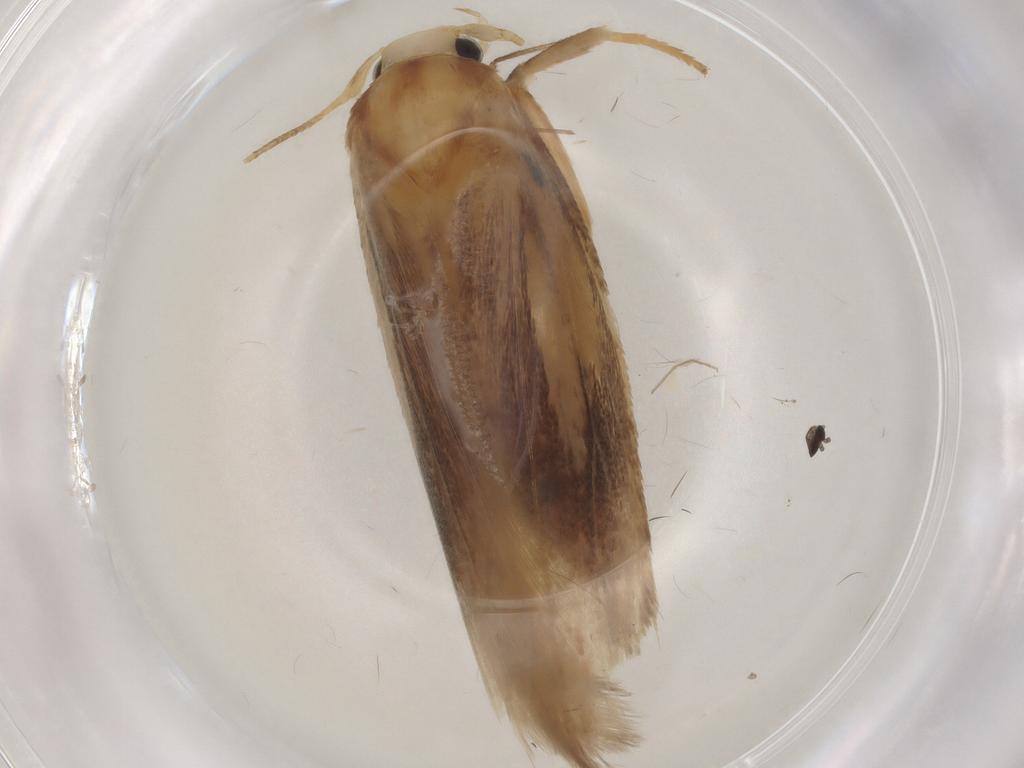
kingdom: Animalia
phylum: Arthropoda
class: Insecta
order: Lepidoptera
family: Geometridae
